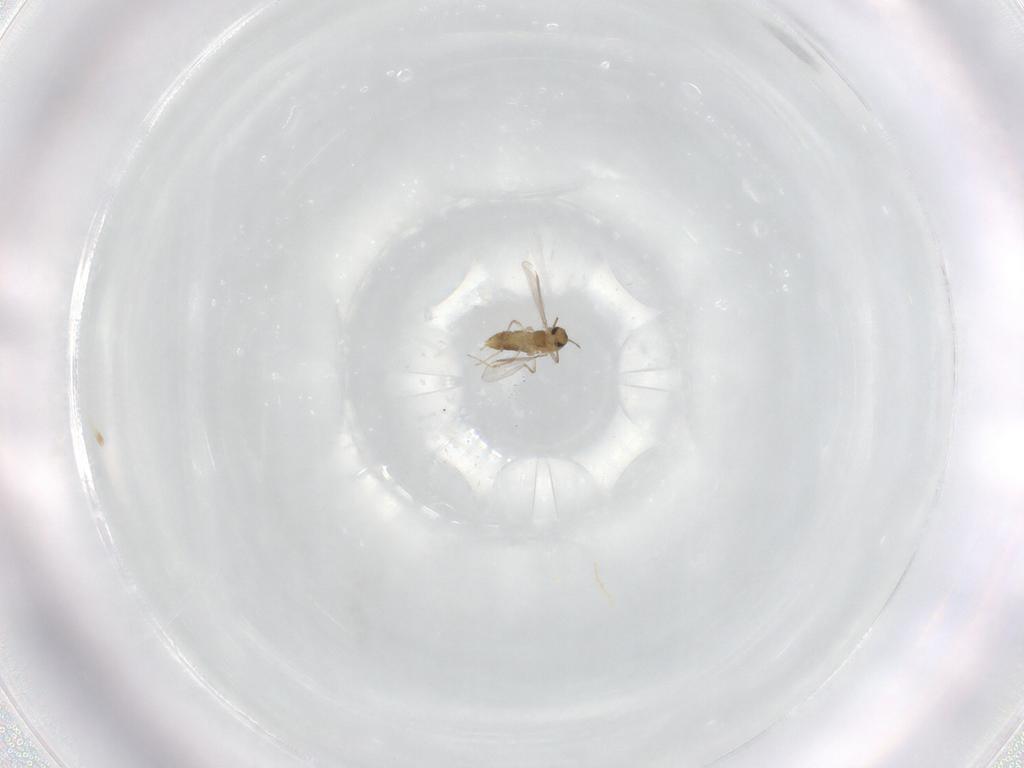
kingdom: Animalia
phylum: Arthropoda
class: Insecta
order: Diptera
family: Chironomidae
